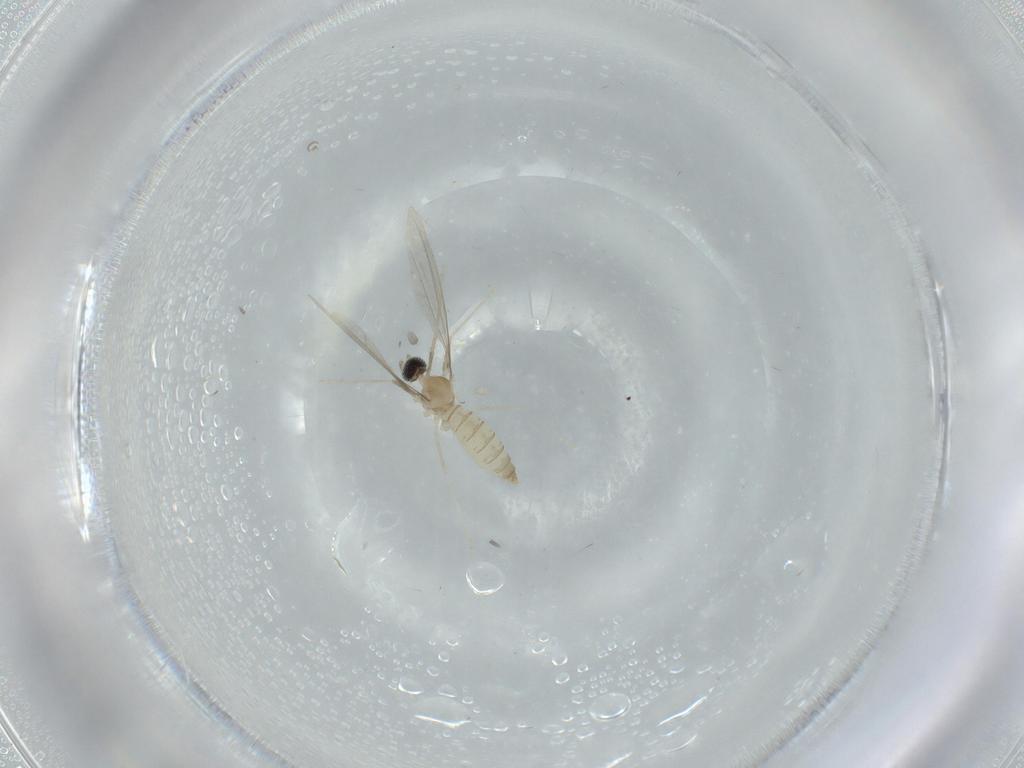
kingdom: Animalia
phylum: Arthropoda
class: Insecta
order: Diptera
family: Cecidomyiidae
